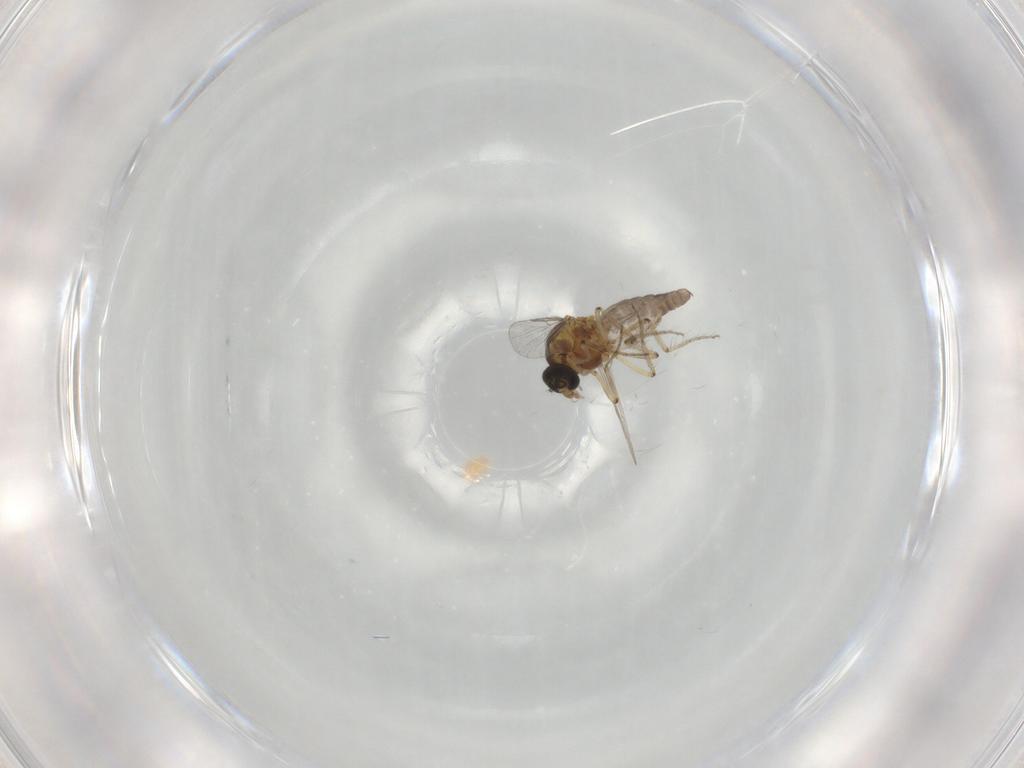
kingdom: Animalia
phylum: Arthropoda
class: Insecta
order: Diptera
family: Ceratopogonidae
